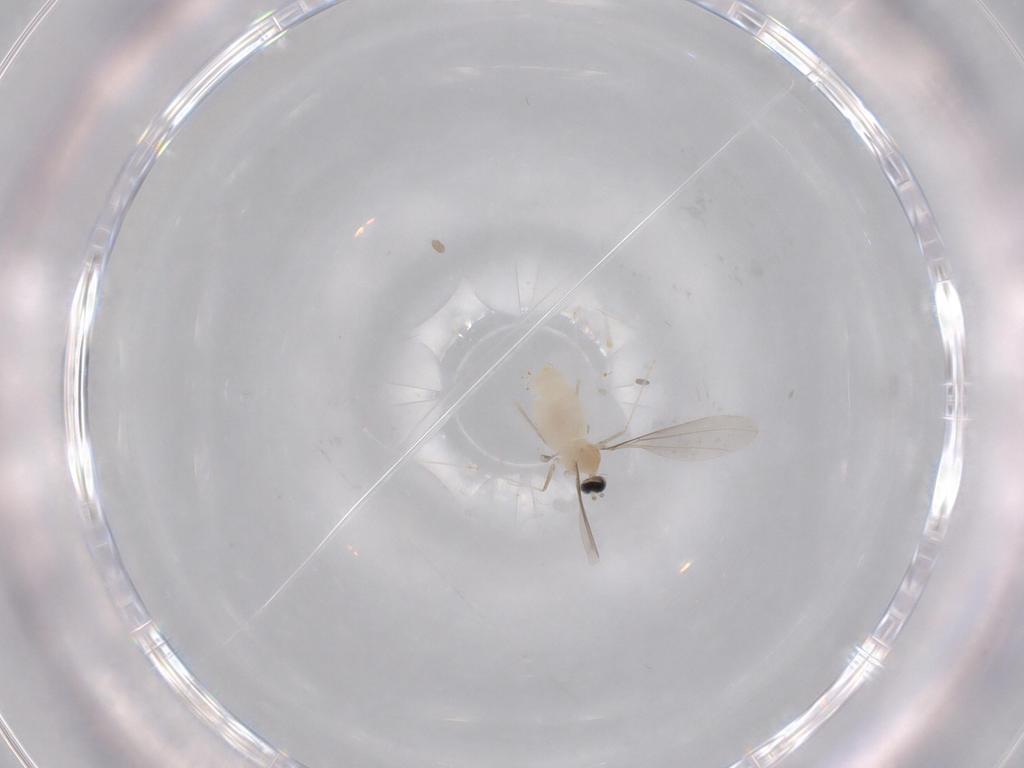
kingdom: Animalia
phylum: Arthropoda
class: Insecta
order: Diptera
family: Cecidomyiidae
